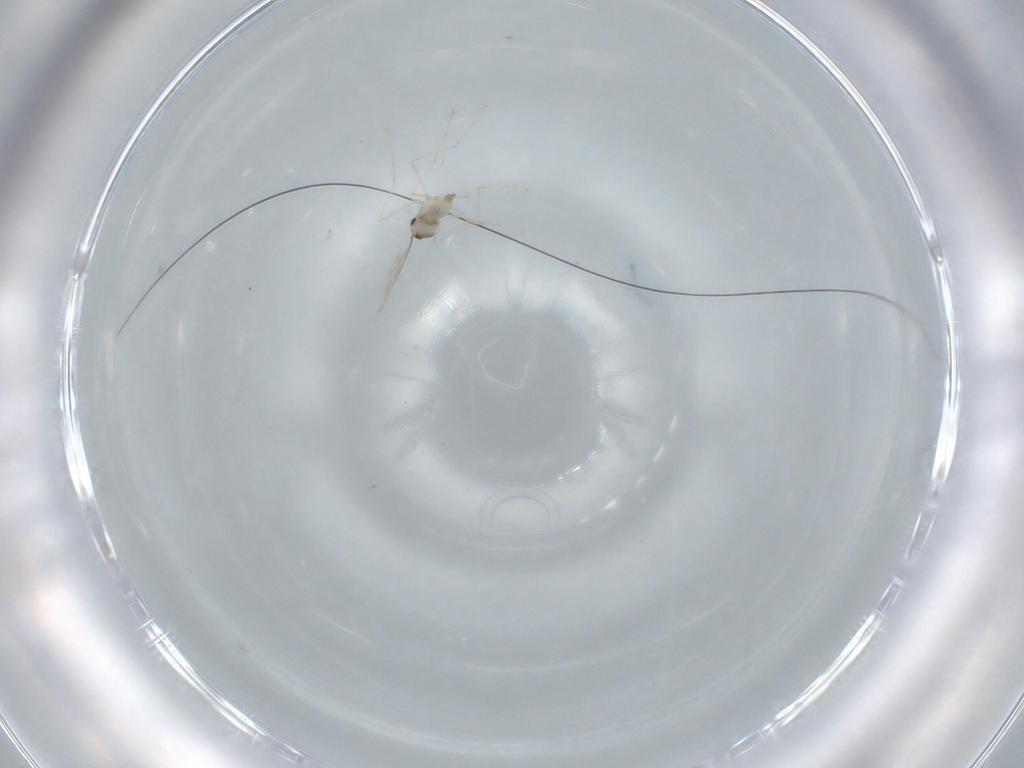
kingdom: Animalia
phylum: Arthropoda
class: Insecta
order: Diptera
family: Cecidomyiidae
